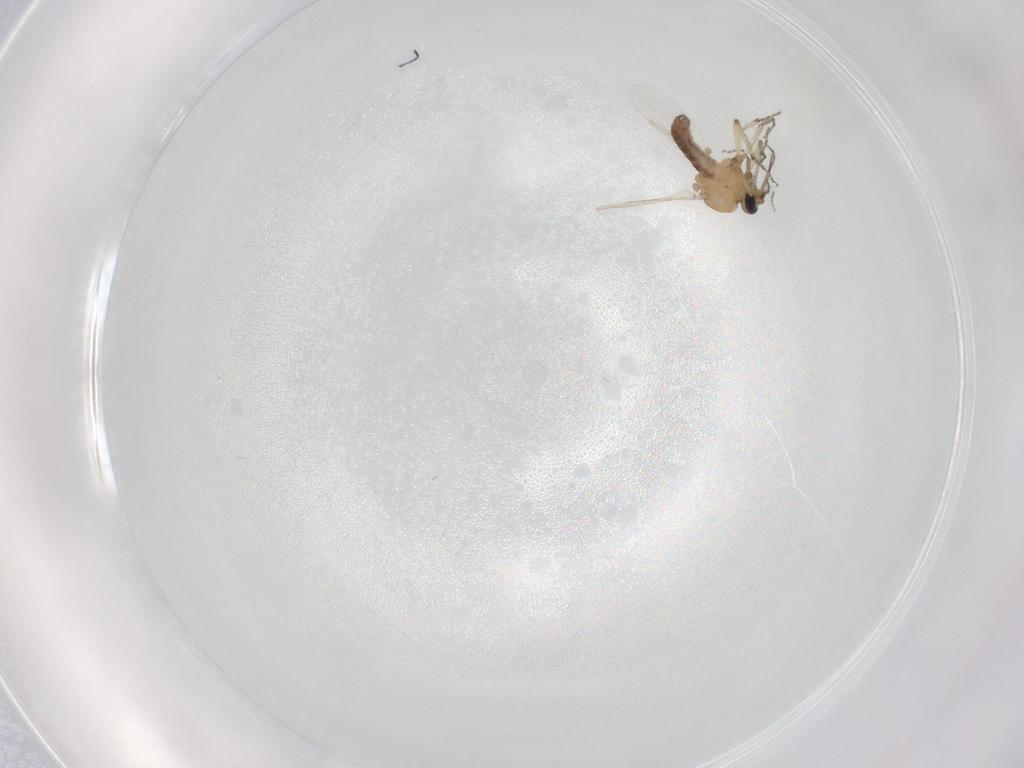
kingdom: Animalia
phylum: Arthropoda
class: Insecta
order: Diptera
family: Ceratopogonidae
